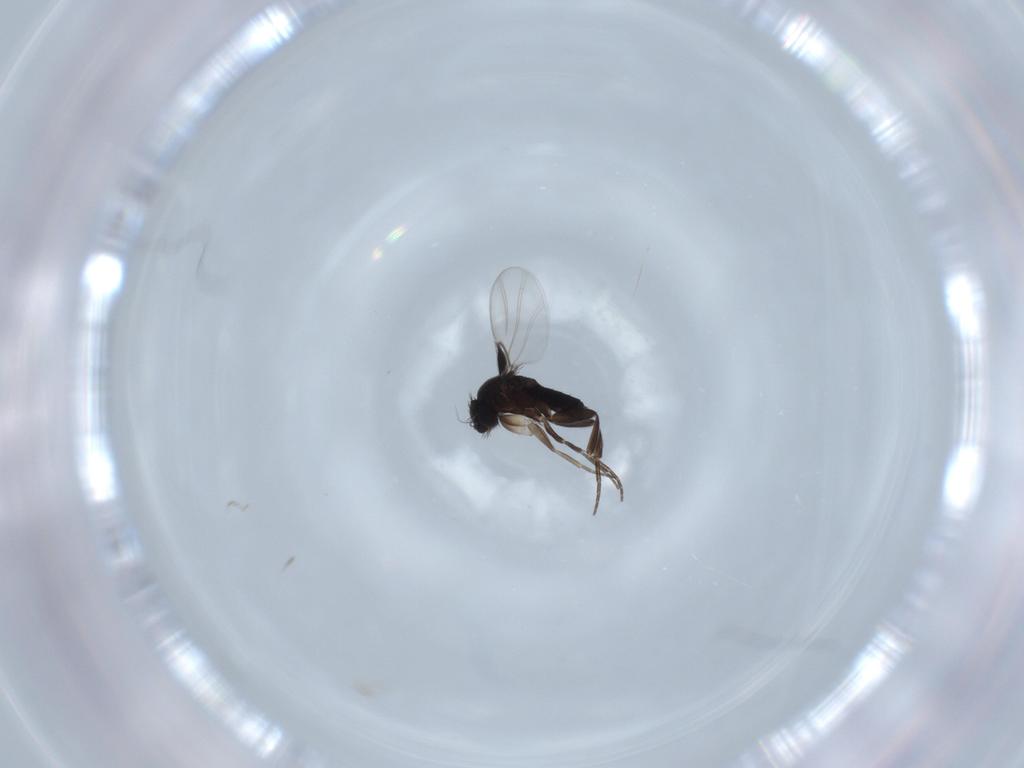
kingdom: Animalia
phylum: Arthropoda
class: Insecta
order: Diptera
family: Phoridae
